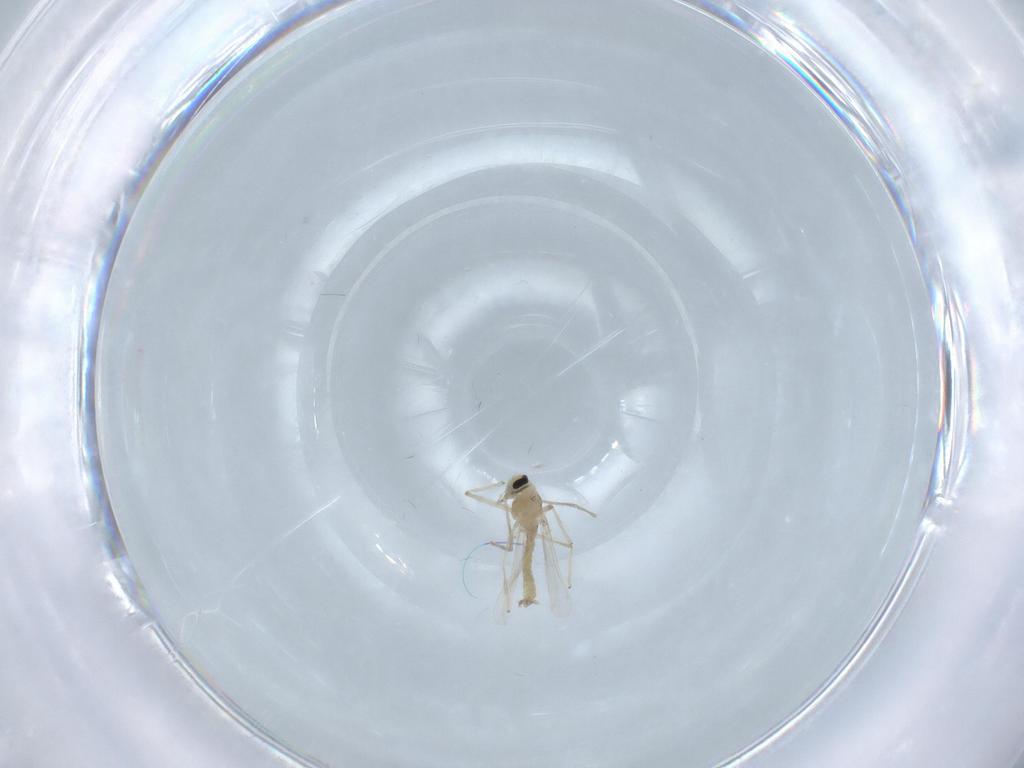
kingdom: Animalia
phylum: Arthropoda
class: Insecta
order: Diptera
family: Chironomidae
